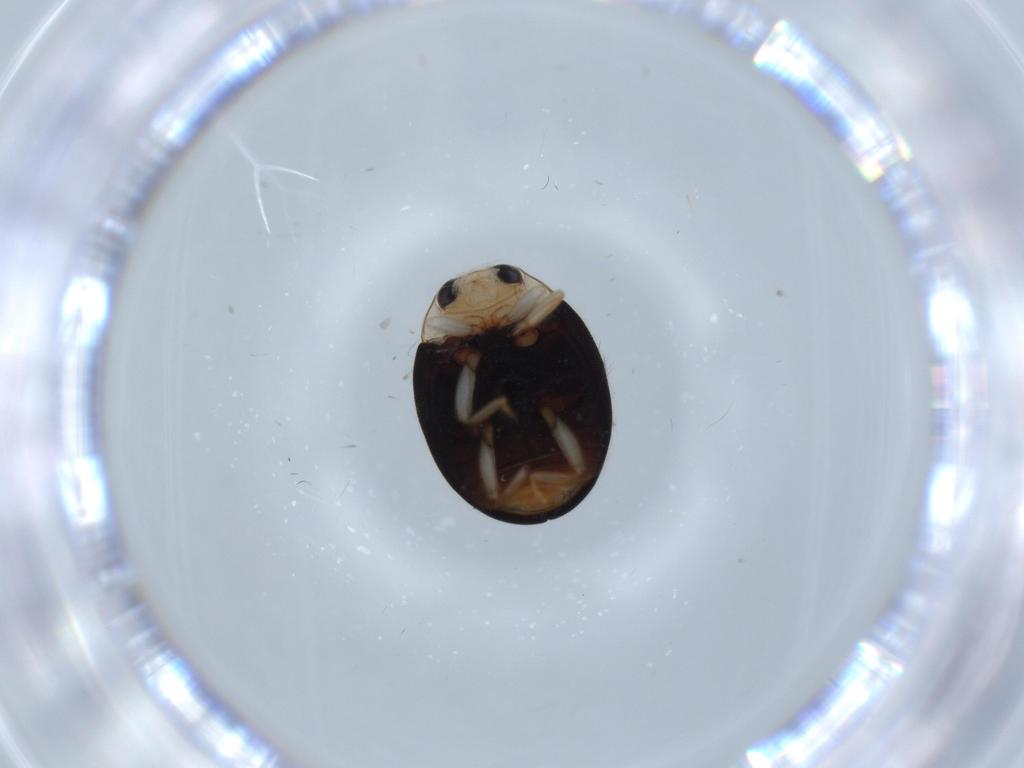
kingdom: Animalia
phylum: Arthropoda
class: Insecta
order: Coleoptera
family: Coccinellidae
